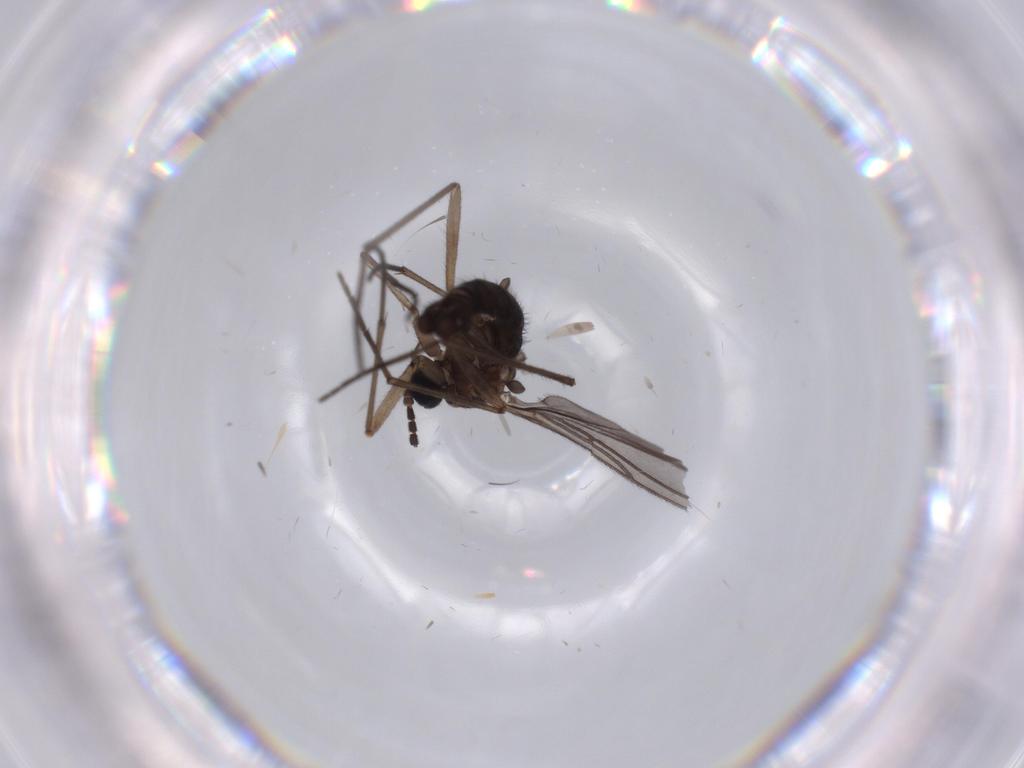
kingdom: Animalia
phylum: Arthropoda
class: Insecta
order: Diptera
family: Sciaridae
